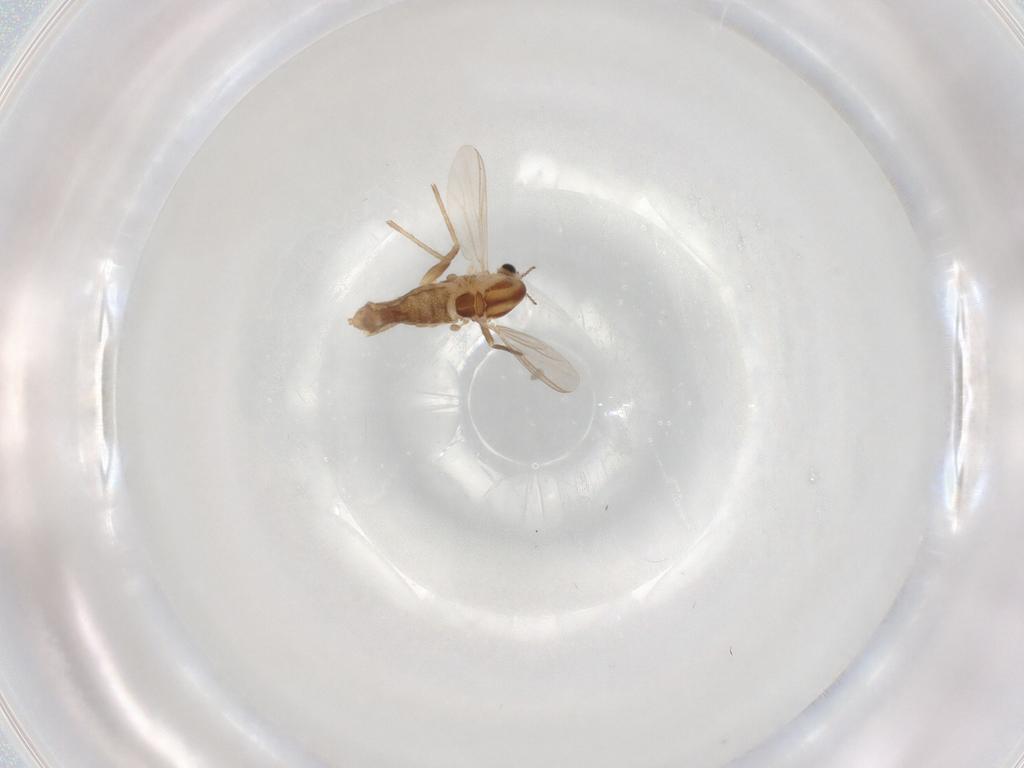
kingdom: Animalia
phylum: Arthropoda
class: Insecta
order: Diptera
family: Chironomidae
